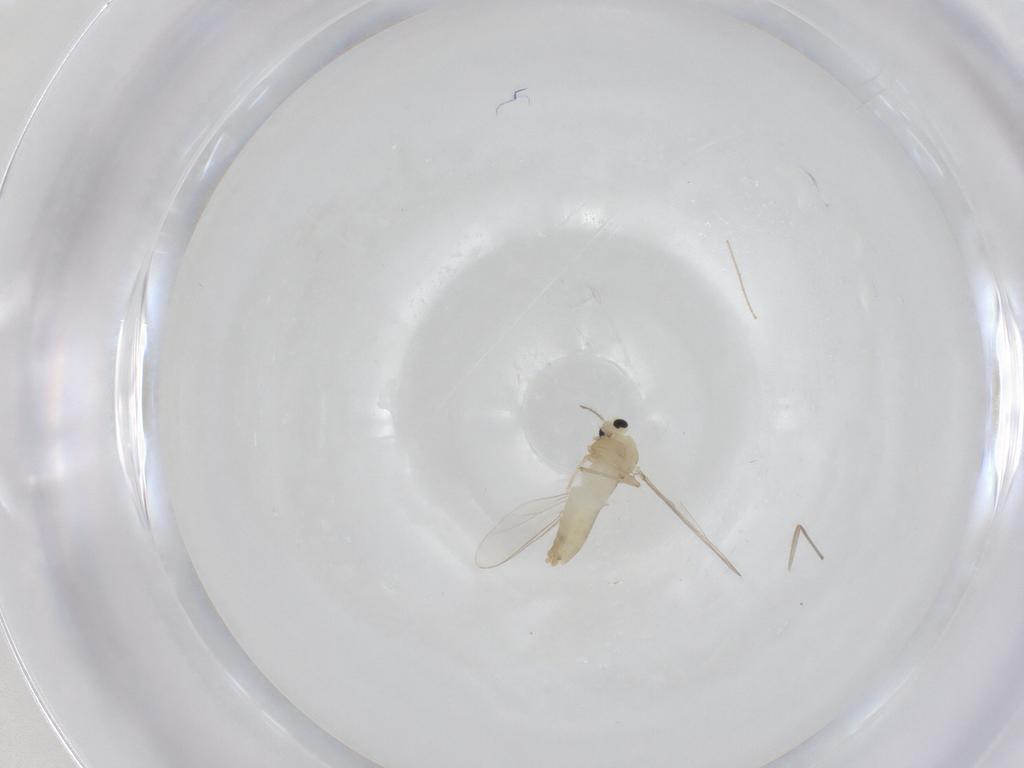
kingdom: Animalia
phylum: Arthropoda
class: Insecta
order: Diptera
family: Chironomidae
